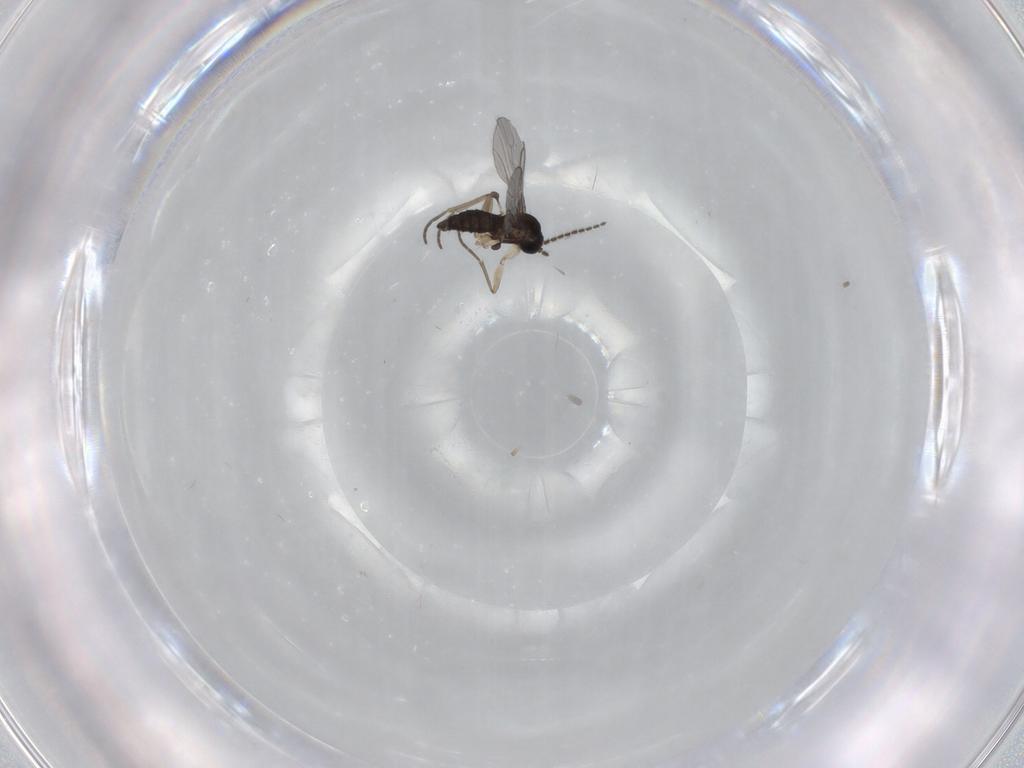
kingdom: Animalia
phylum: Arthropoda
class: Insecta
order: Diptera
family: Sciaridae
